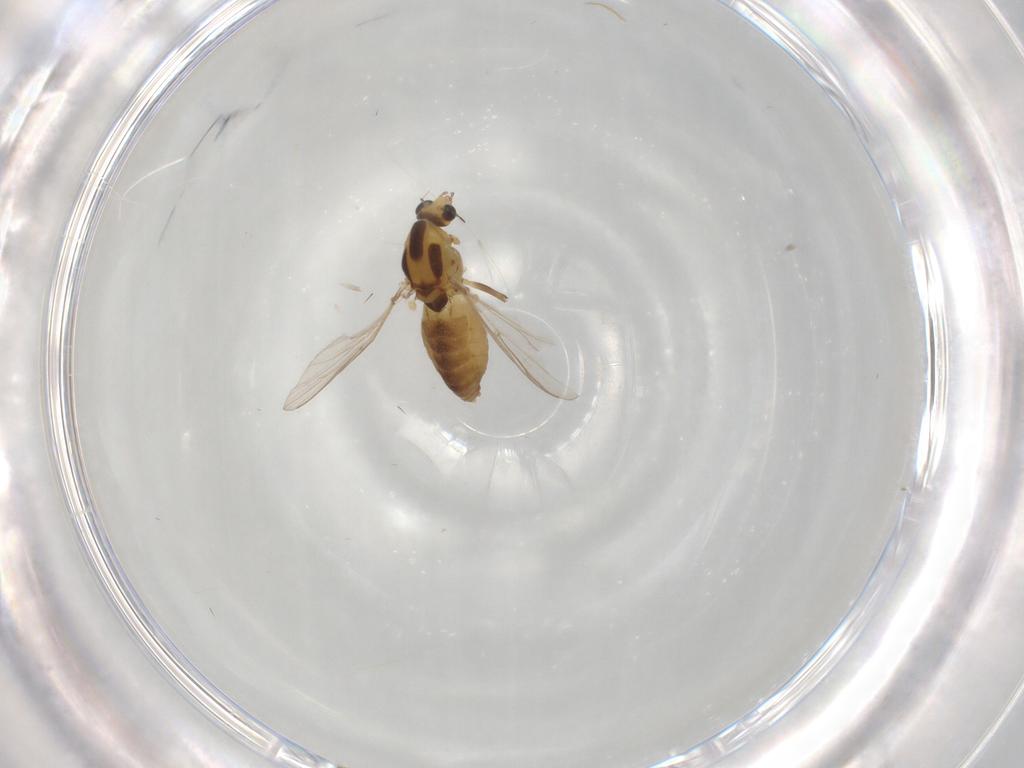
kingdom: Animalia
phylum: Arthropoda
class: Insecta
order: Diptera
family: Chironomidae
